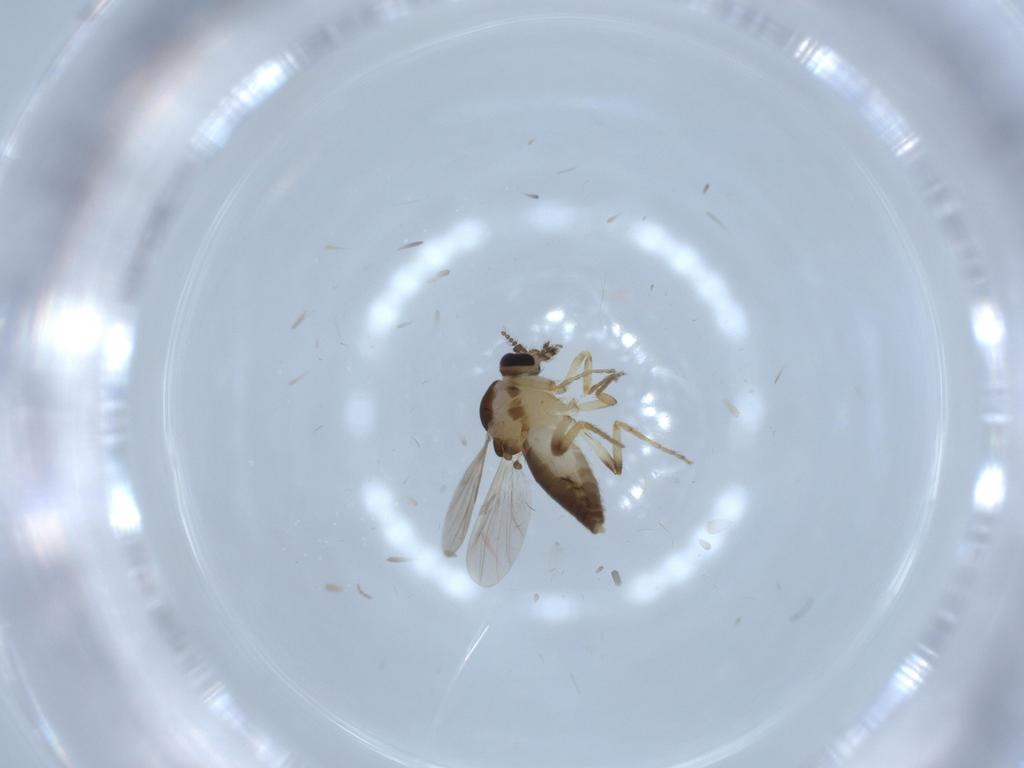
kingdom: Animalia
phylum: Arthropoda
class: Insecta
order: Diptera
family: Chironomidae
